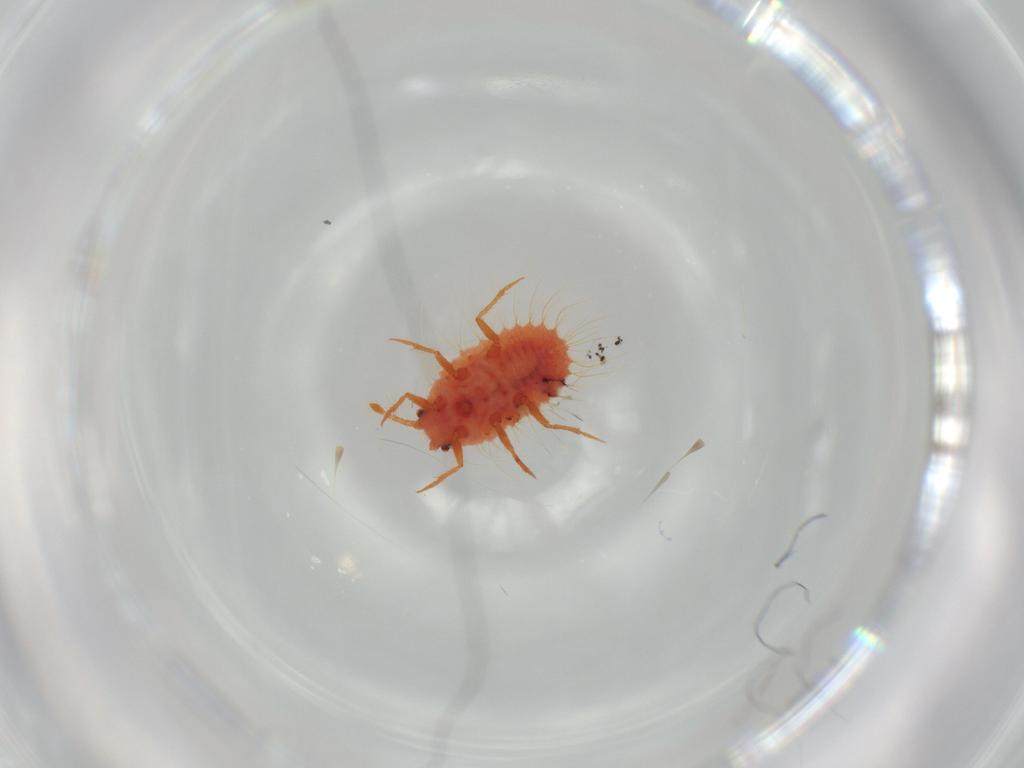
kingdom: Animalia
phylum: Arthropoda
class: Insecta
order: Hemiptera
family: Coccoidea_incertae_sedis
